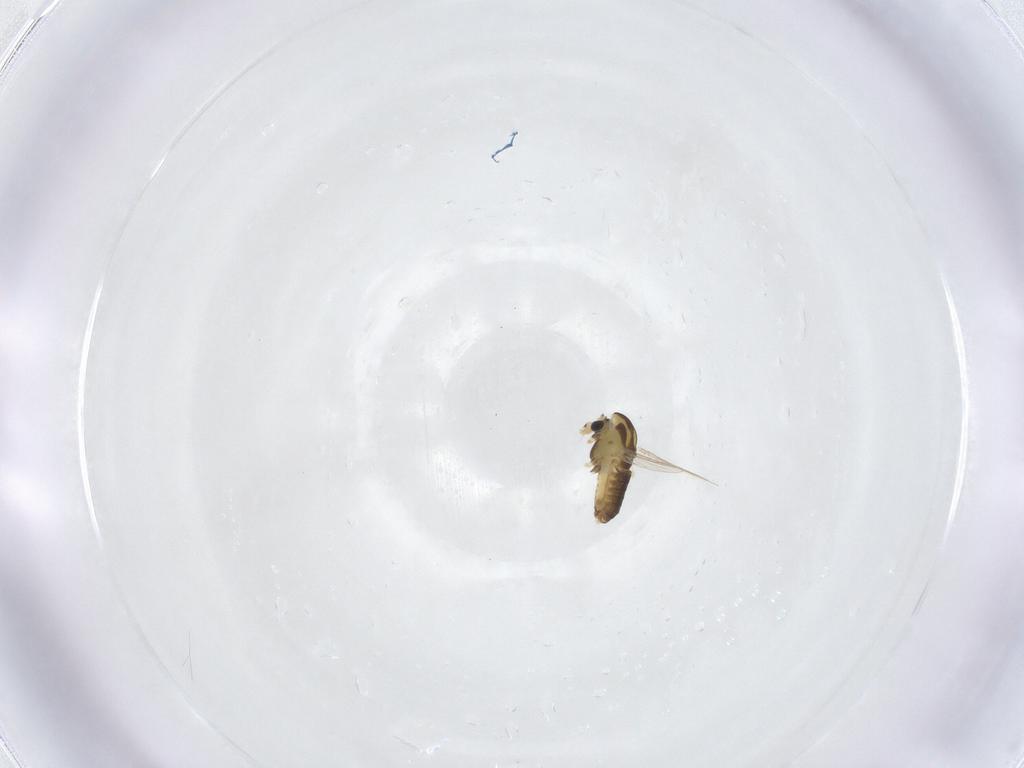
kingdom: Animalia
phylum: Arthropoda
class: Insecta
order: Diptera
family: Chironomidae
